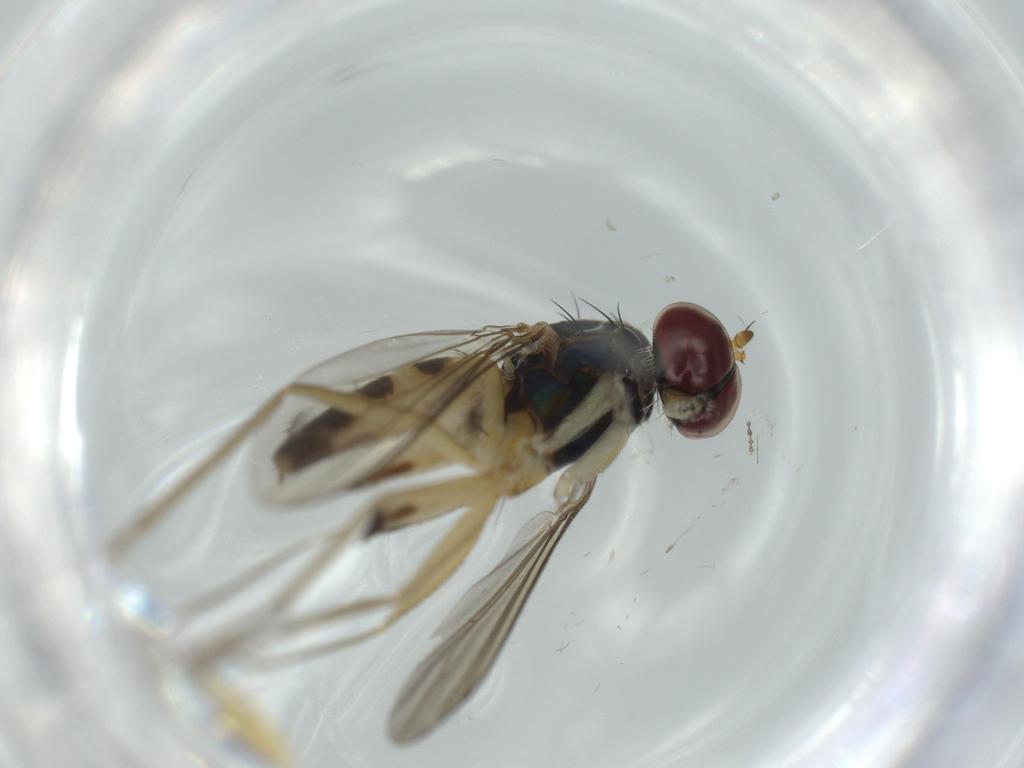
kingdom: Animalia
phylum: Arthropoda
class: Insecta
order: Diptera
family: Dolichopodidae
